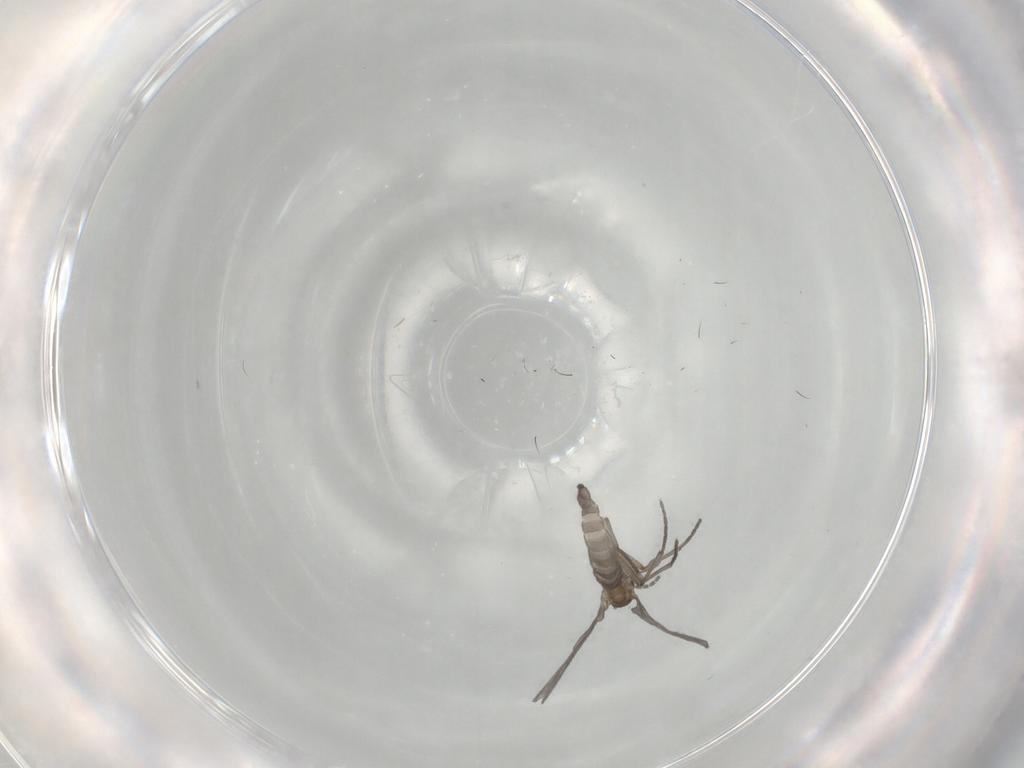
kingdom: Animalia
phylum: Arthropoda
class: Insecta
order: Diptera
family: Sciaridae
